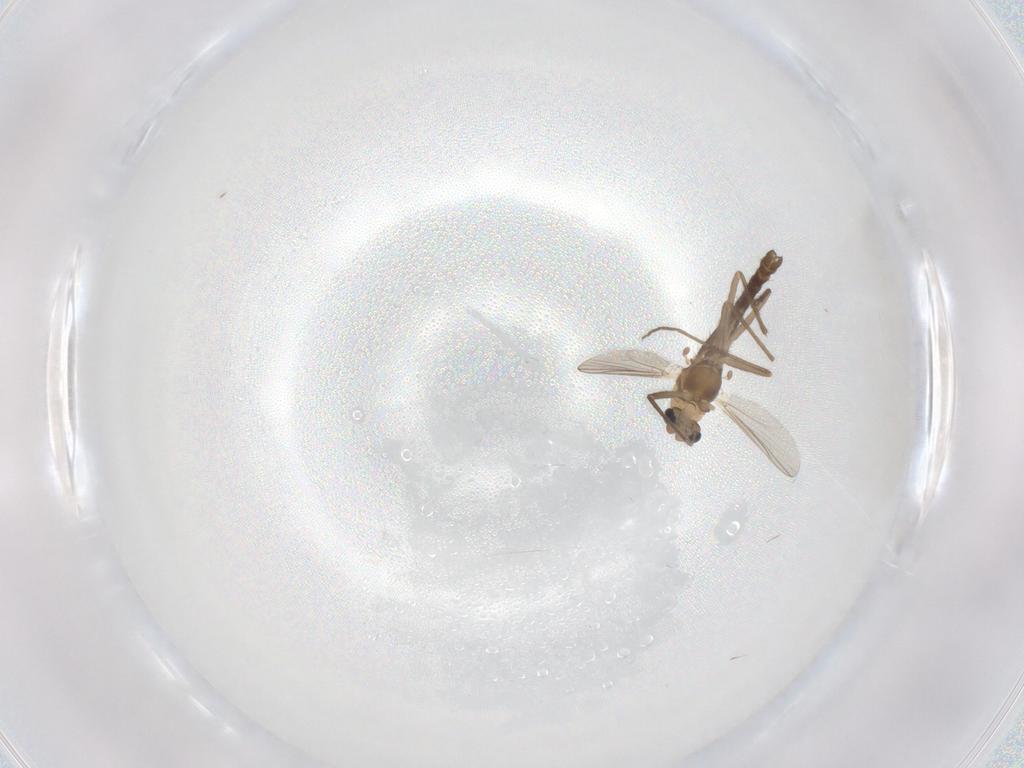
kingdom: Animalia
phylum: Arthropoda
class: Insecta
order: Diptera
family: Chironomidae
